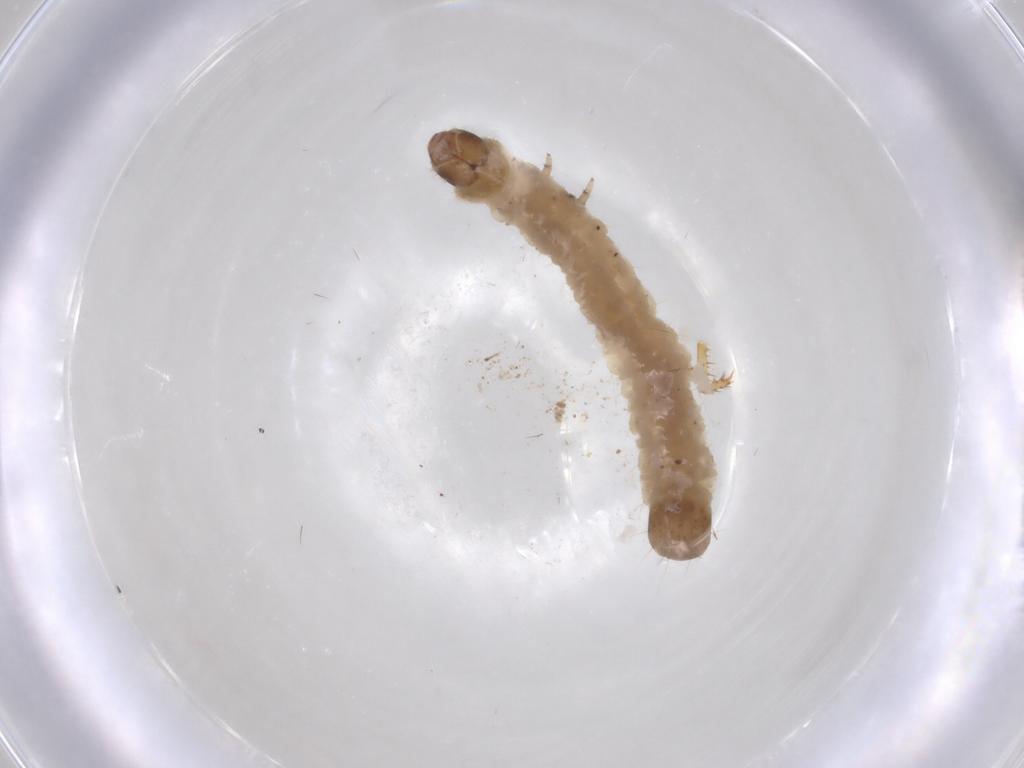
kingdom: Animalia
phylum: Arthropoda
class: Insecta
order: Coleoptera
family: Chrysomelidae
